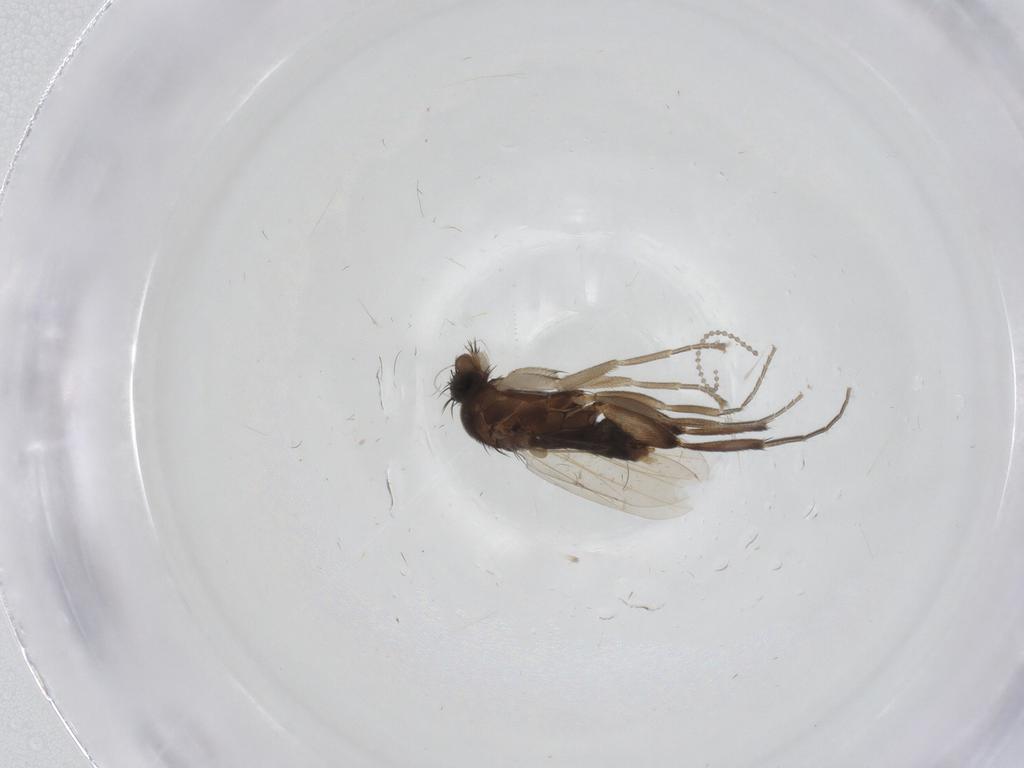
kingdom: Animalia
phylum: Arthropoda
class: Insecta
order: Diptera
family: Phoridae
